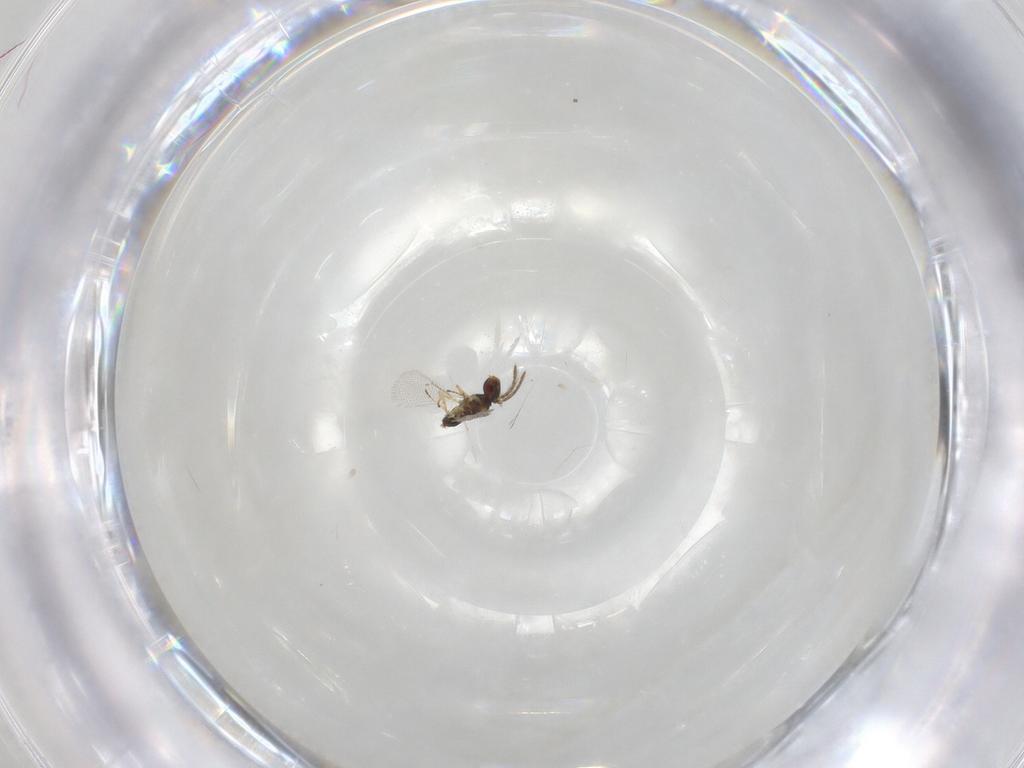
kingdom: Animalia
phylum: Arthropoda
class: Insecta
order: Hymenoptera
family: Eulophidae
